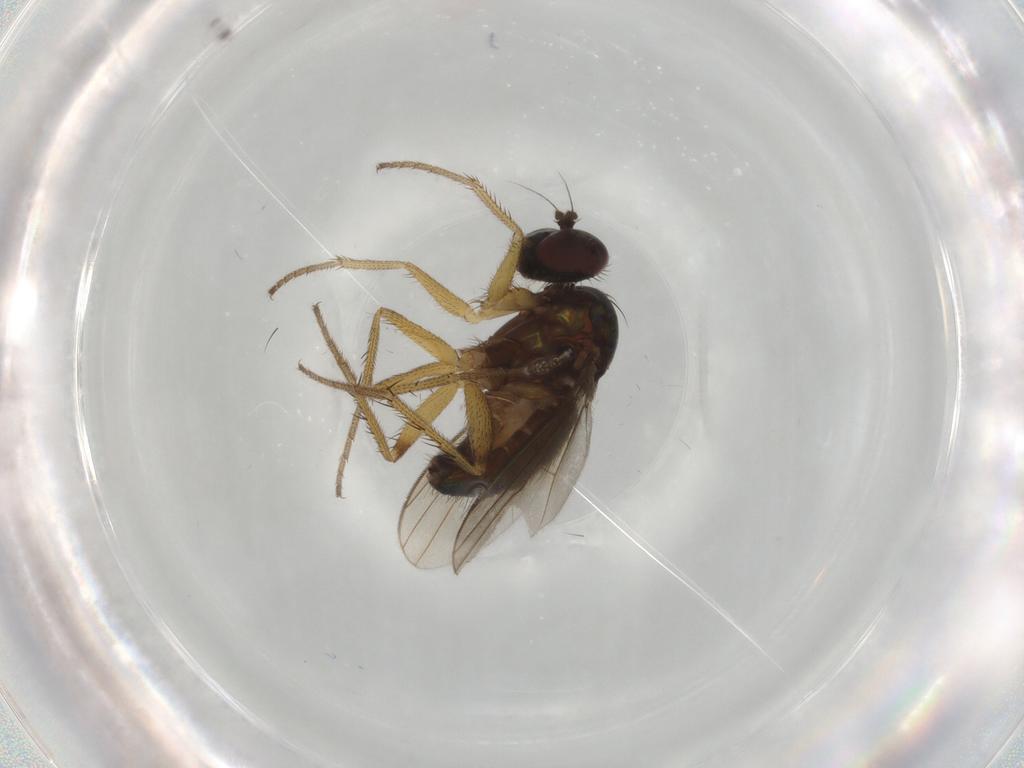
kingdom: Animalia
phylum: Arthropoda
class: Insecta
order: Diptera
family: Dolichopodidae
